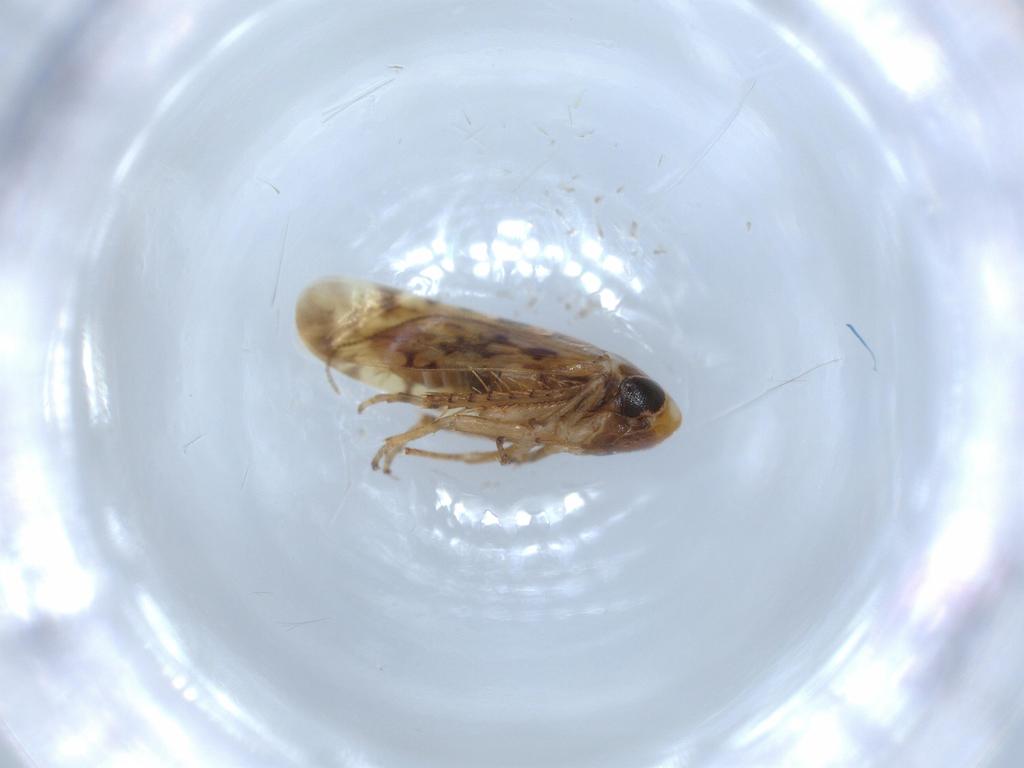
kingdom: Animalia
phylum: Arthropoda
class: Insecta
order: Hemiptera
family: Cicadellidae
